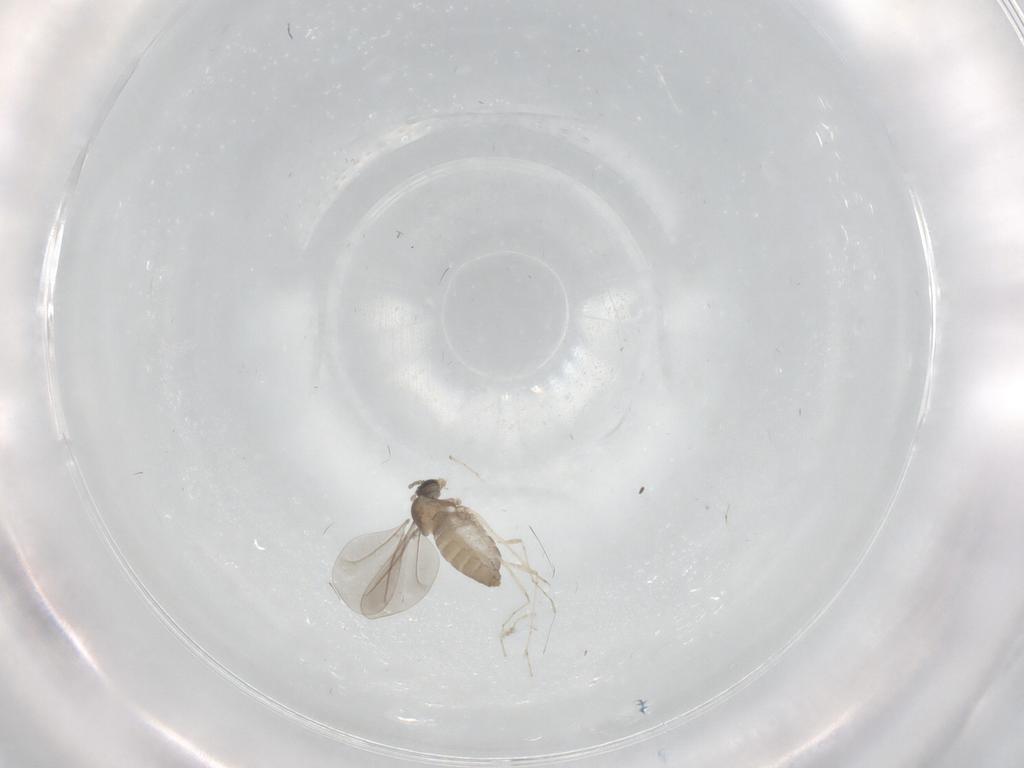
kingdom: Animalia
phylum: Arthropoda
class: Insecta
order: Diptera
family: Cecidomyiidae
